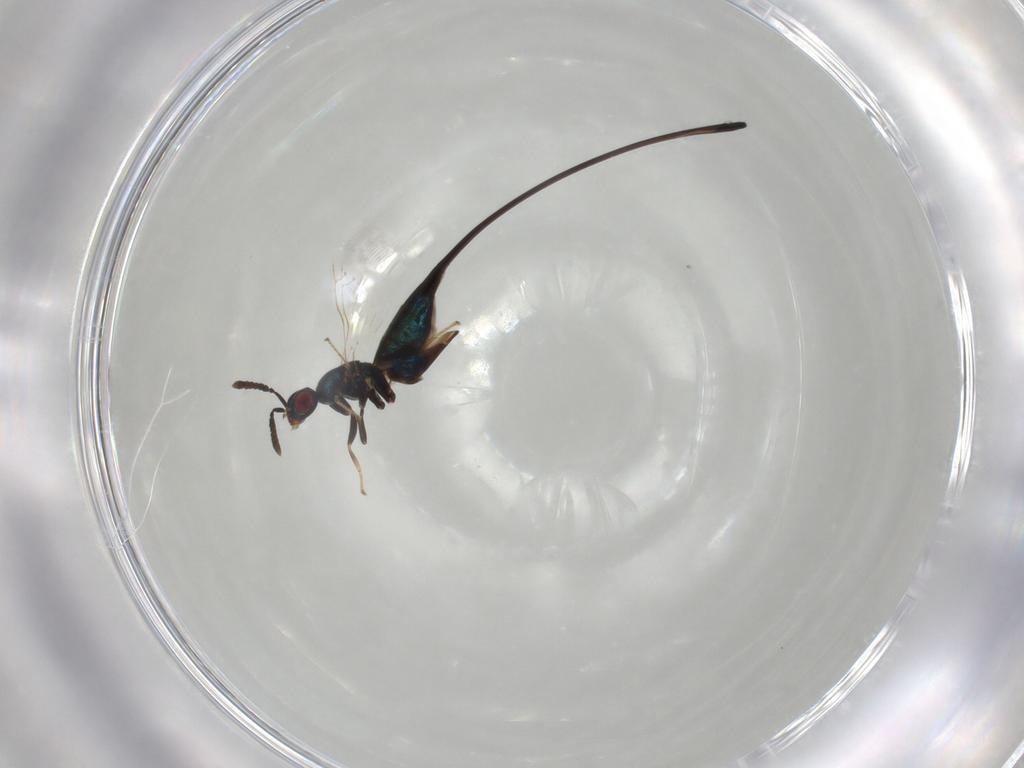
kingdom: Animalia
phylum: Arthropoda
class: Insecta
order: Hymenoptera
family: Pteromalidae
